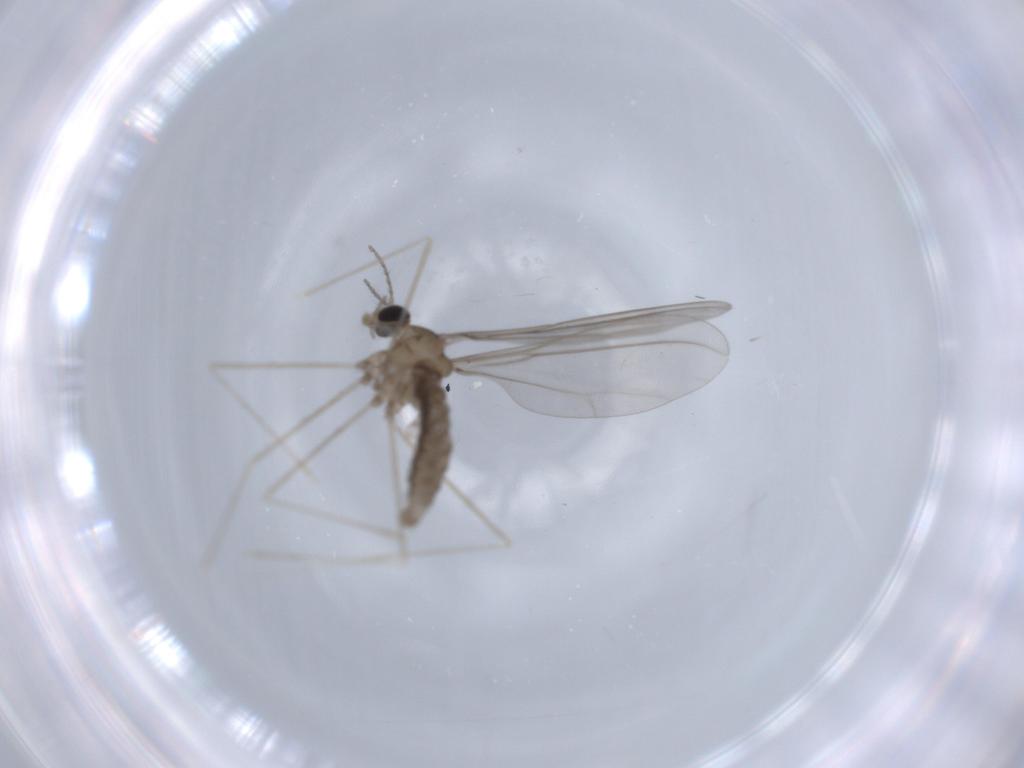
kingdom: Animalia
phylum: Arthropoda
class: Insecta
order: Diptera
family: Cecidomyiidae
